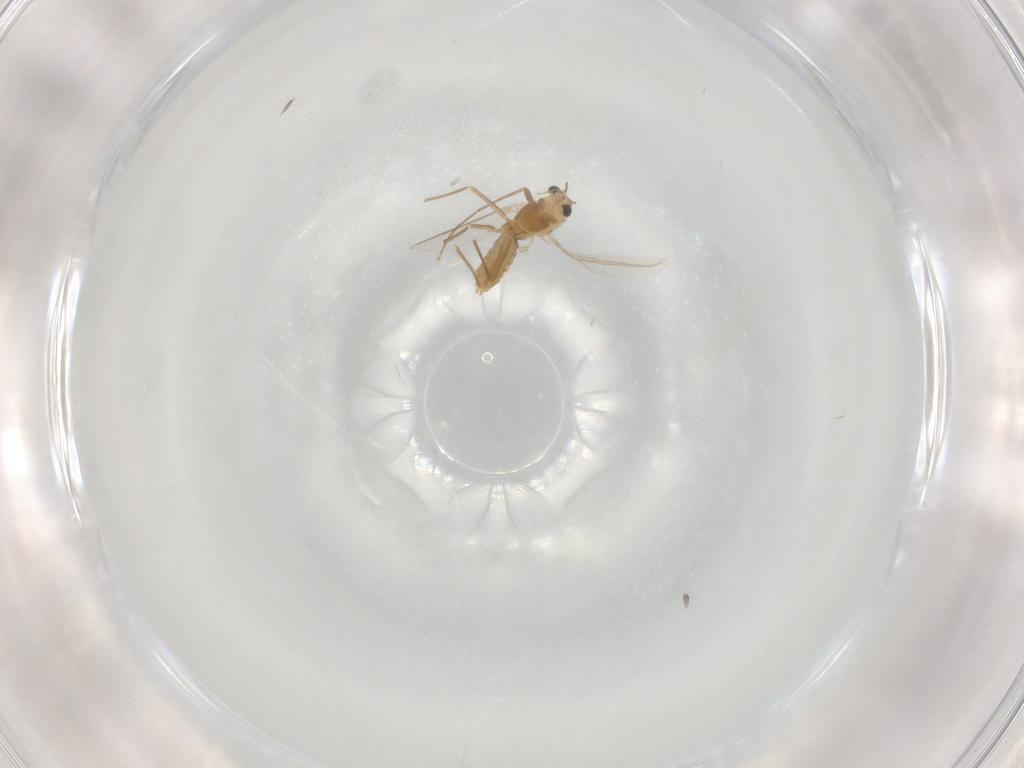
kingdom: Animalia
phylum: Arthropoda
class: Insecta
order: Diptera
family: Chironomidae
